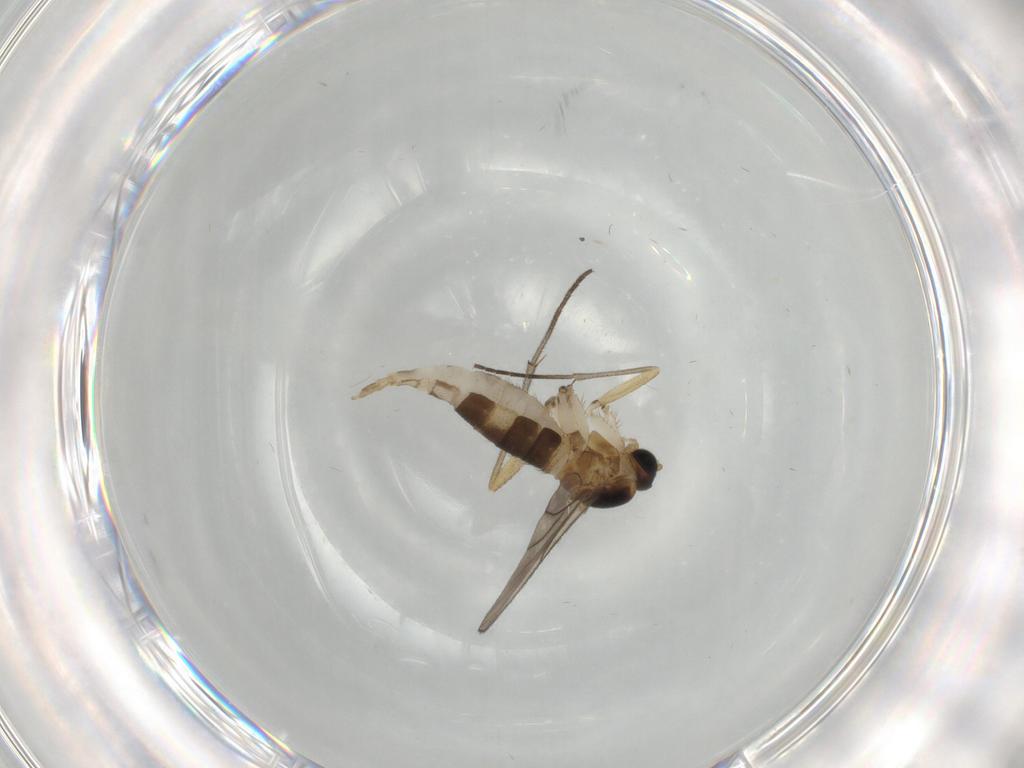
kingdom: Animalia
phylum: Arthropoda
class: Insecta
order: Diptera
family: Sciaridae
